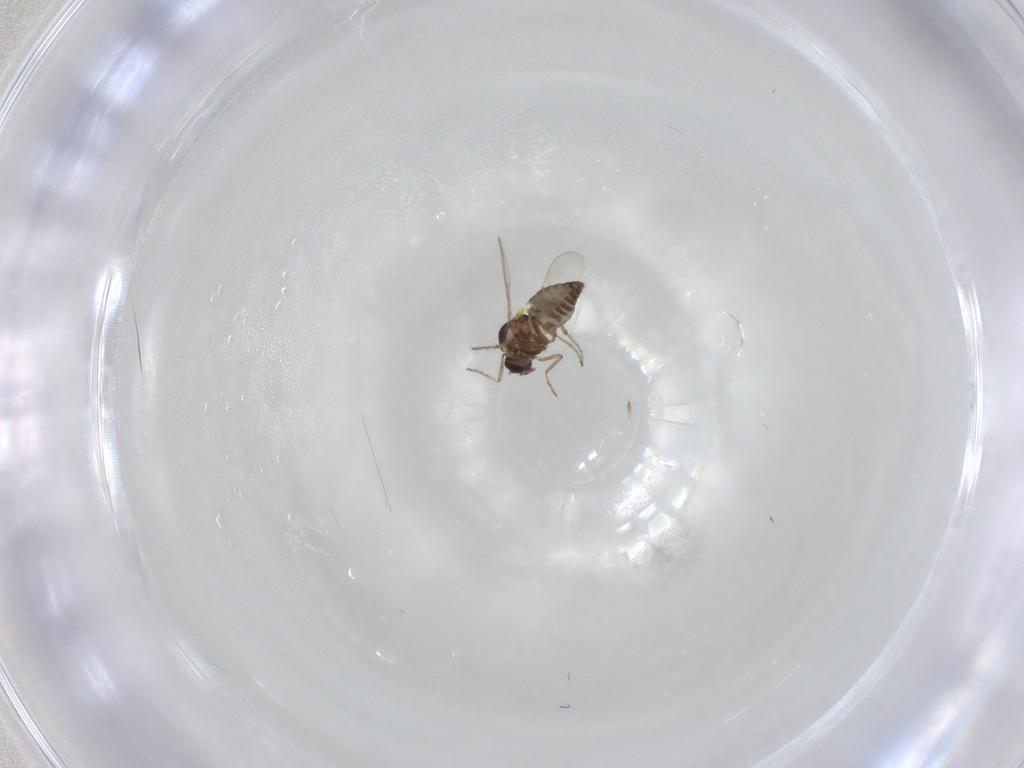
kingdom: Animalia
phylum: Arthropoda
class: Insecta
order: Diptera
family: Ceratopogonidae
